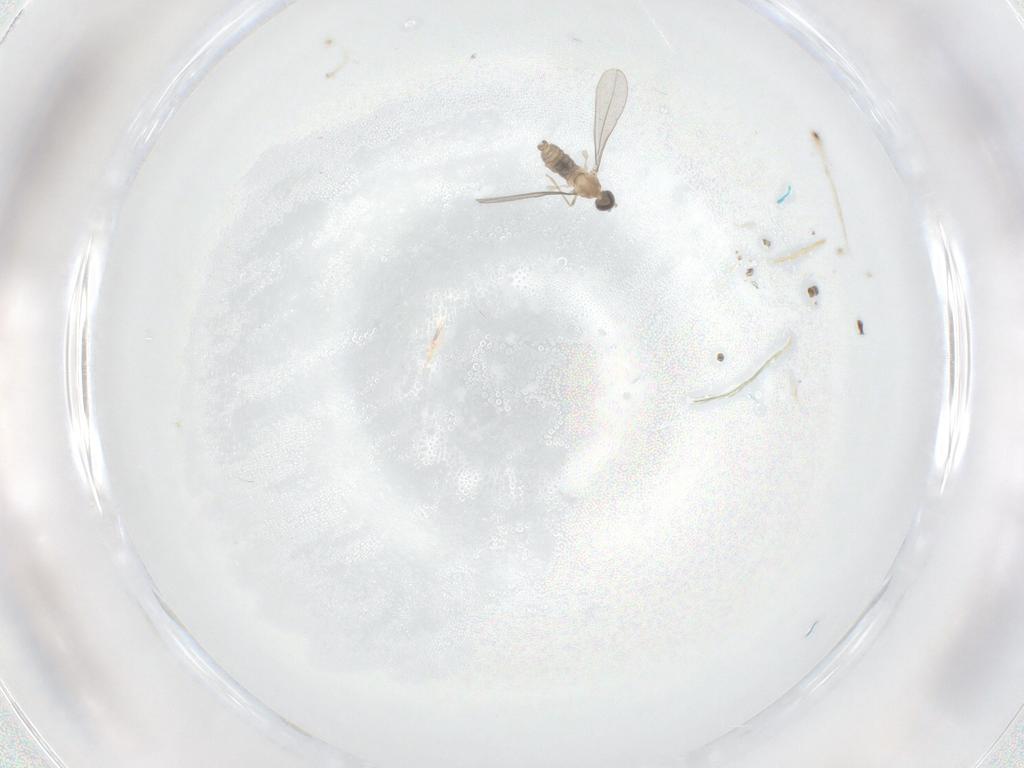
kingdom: Animalia
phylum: Arthropoda
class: Insecta
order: Diptera
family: Cecidomyiidae
